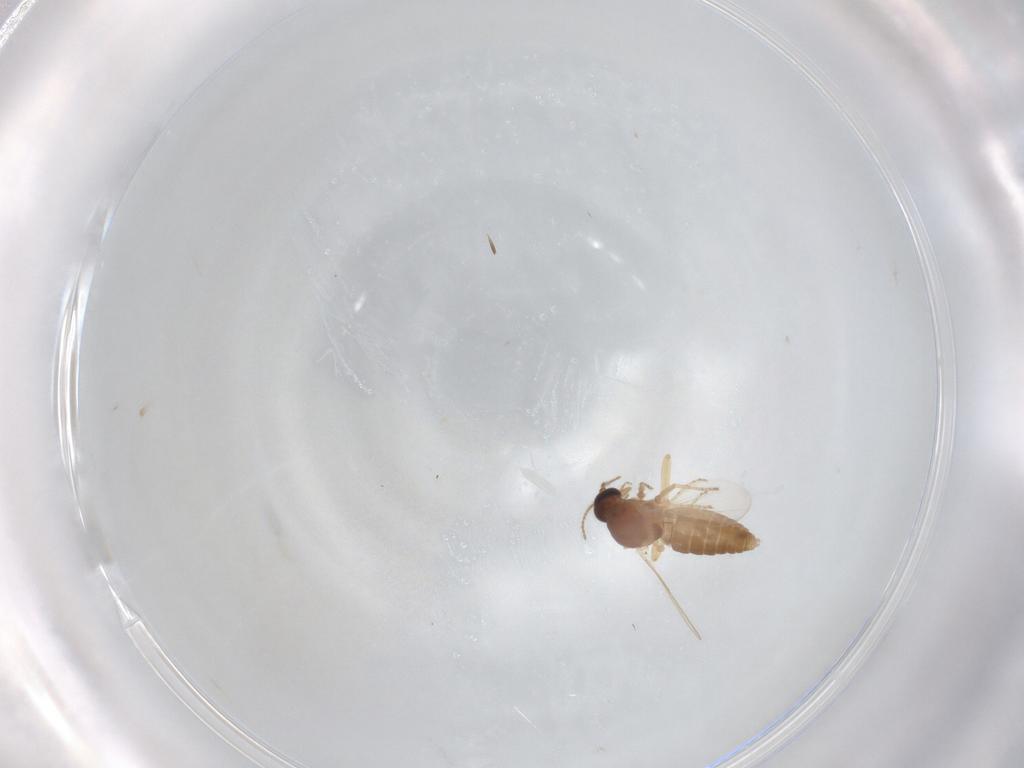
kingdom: Animalia
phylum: Arthropoda
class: Insecta
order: Diptera
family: Ceratopogonidae
